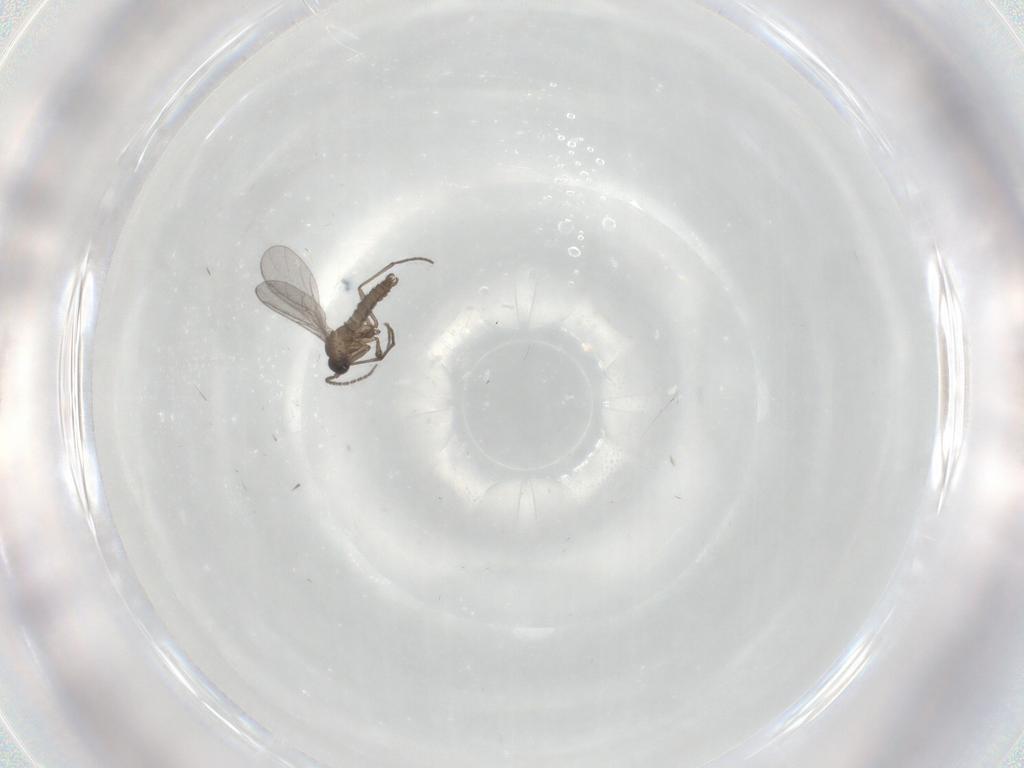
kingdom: Animalia
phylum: Arthropoda
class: Insecta
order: Diptera
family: Sciaridae
